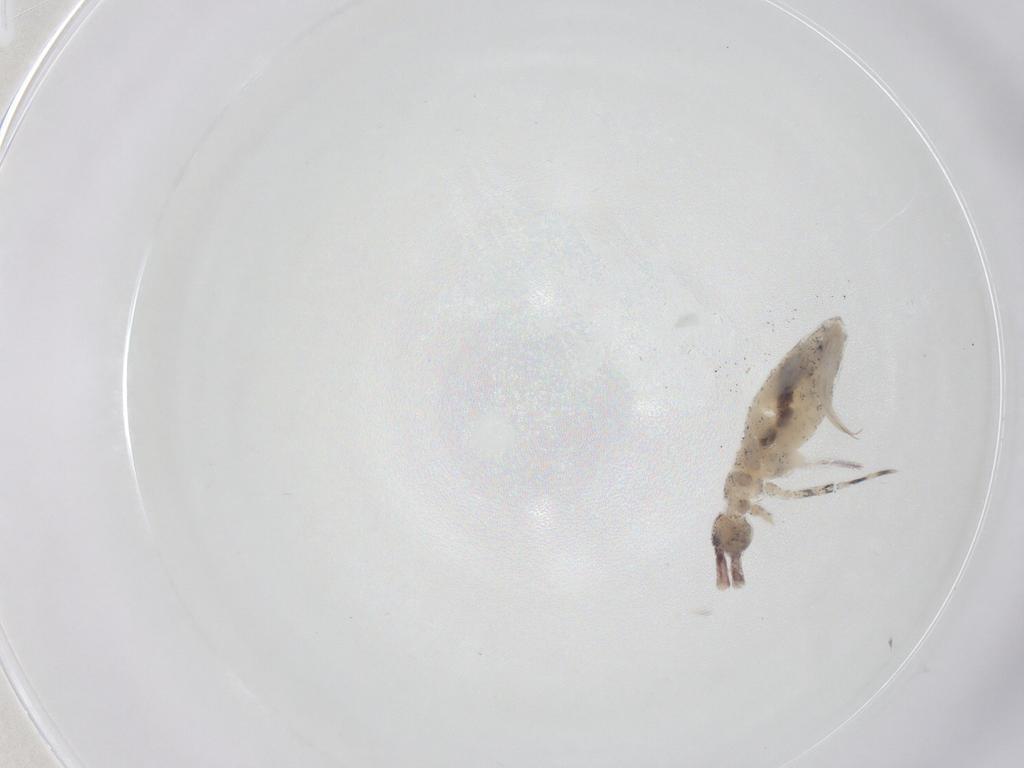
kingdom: Animalia
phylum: Arthropoda
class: Collembola
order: Entomobryomorpha
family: Entomobryidae
